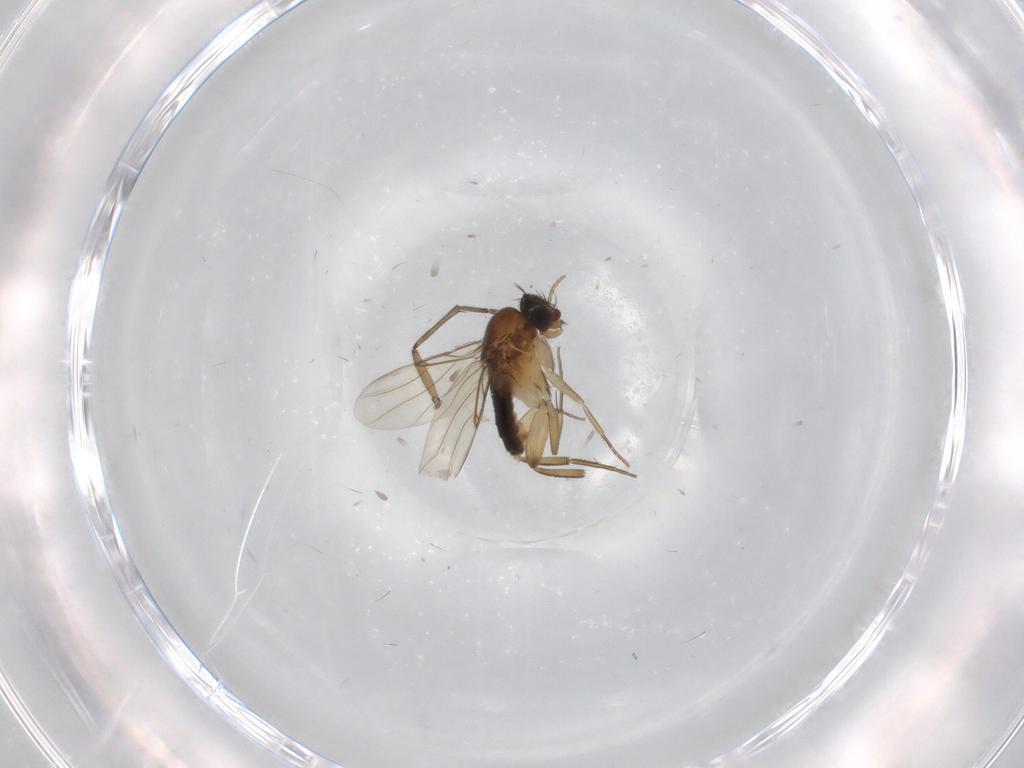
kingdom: Animalia
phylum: Arthropoda
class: Insecta
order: Diptera
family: Phoridae
